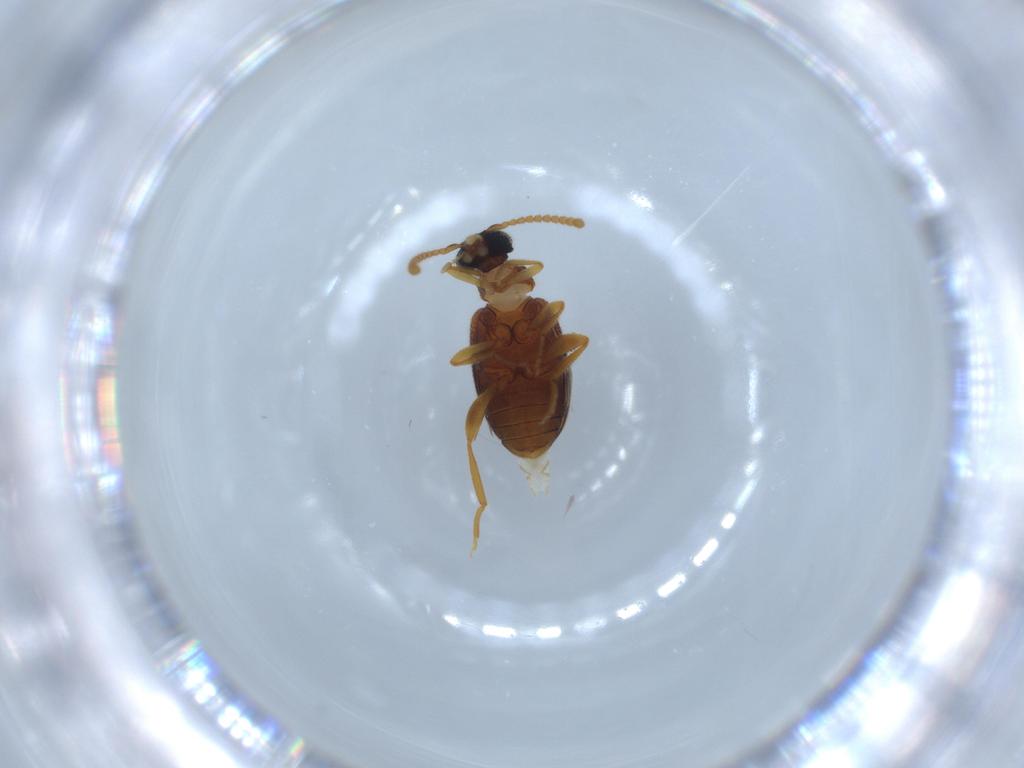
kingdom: Animalia
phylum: Arthropoda
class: Insecta
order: Coleoptera
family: Aderidae
